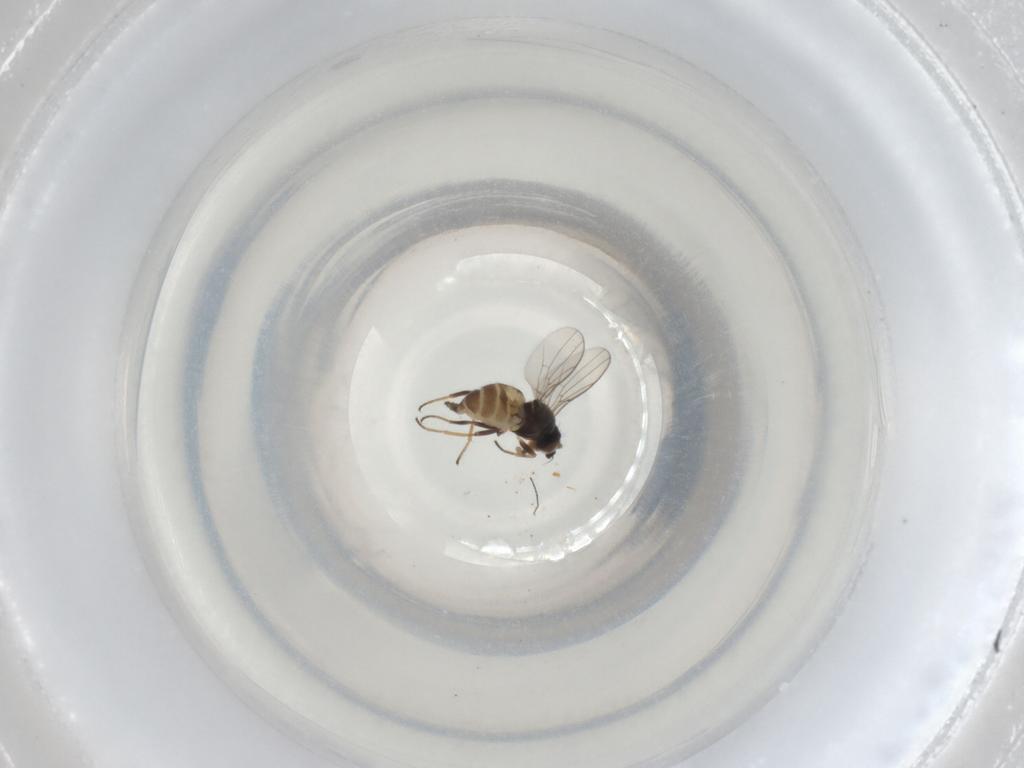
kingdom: Animalia
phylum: Arthropoda
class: Insecta
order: Diptera
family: Chloropidae
